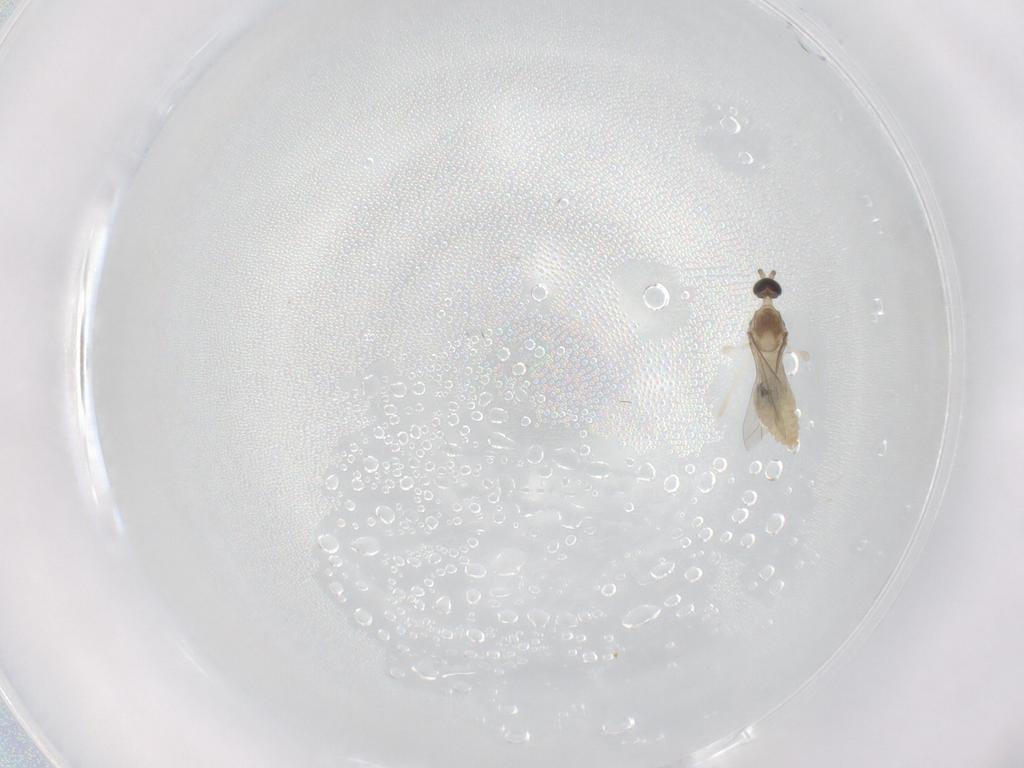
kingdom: Animalia
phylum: Arthropoda
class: Insecta
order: Diptera
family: Cecidomyiidae
